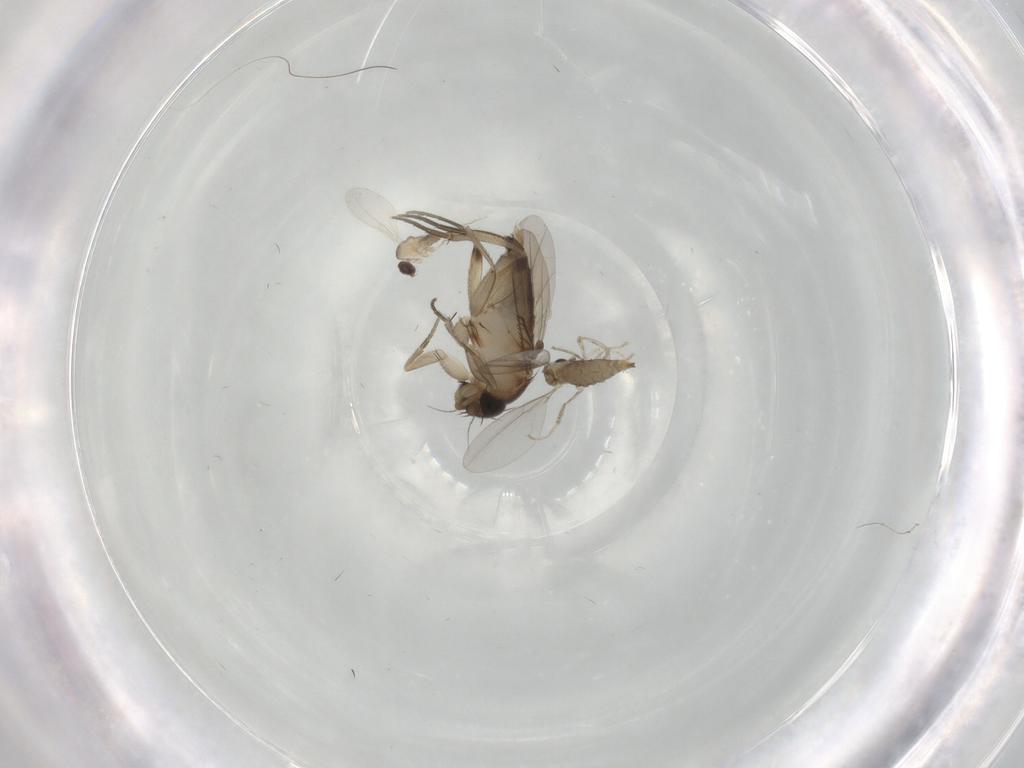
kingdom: Animalia
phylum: Arthropoda
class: Insecta
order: Diptera
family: Phoridae
